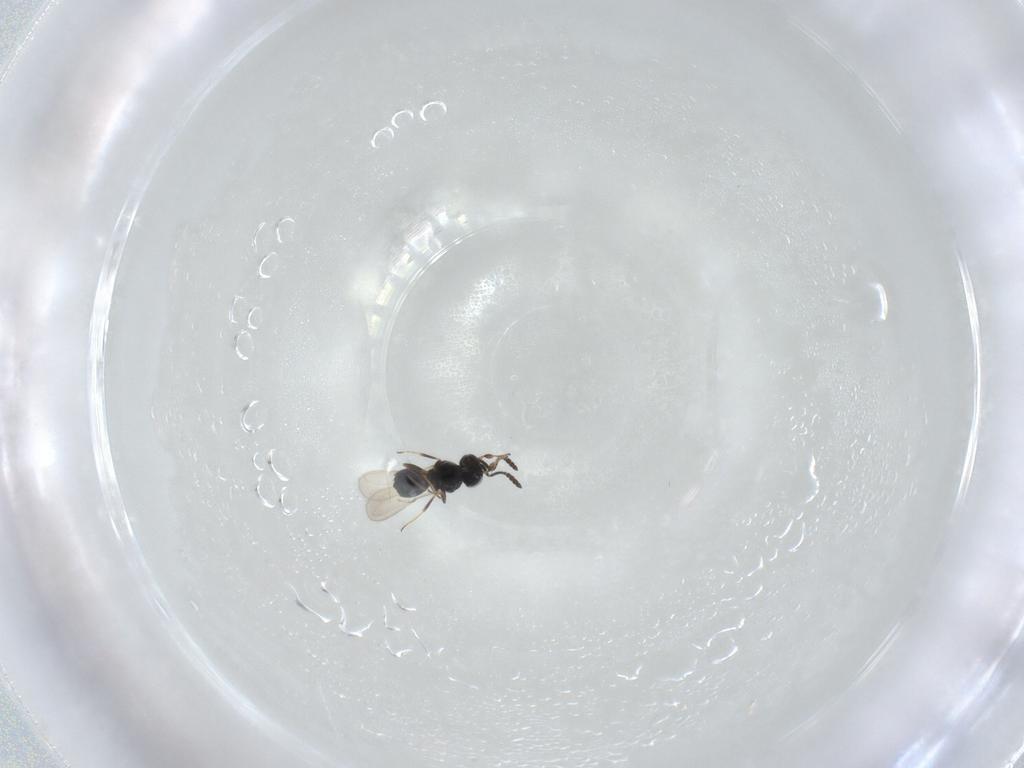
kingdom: Animalia
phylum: Arthropoda
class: Insecta
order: Hymenoptera
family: Scelionidae
